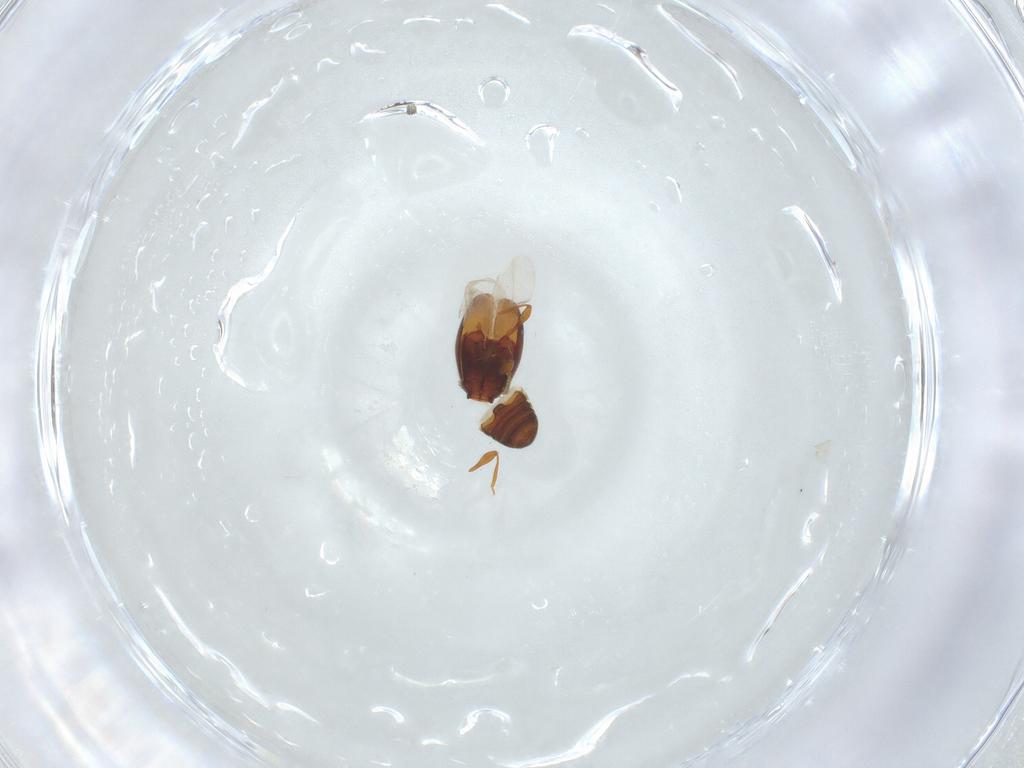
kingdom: Animalia
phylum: Arthropoda
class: Insecta
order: Coleoptera
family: Staphylinidae
